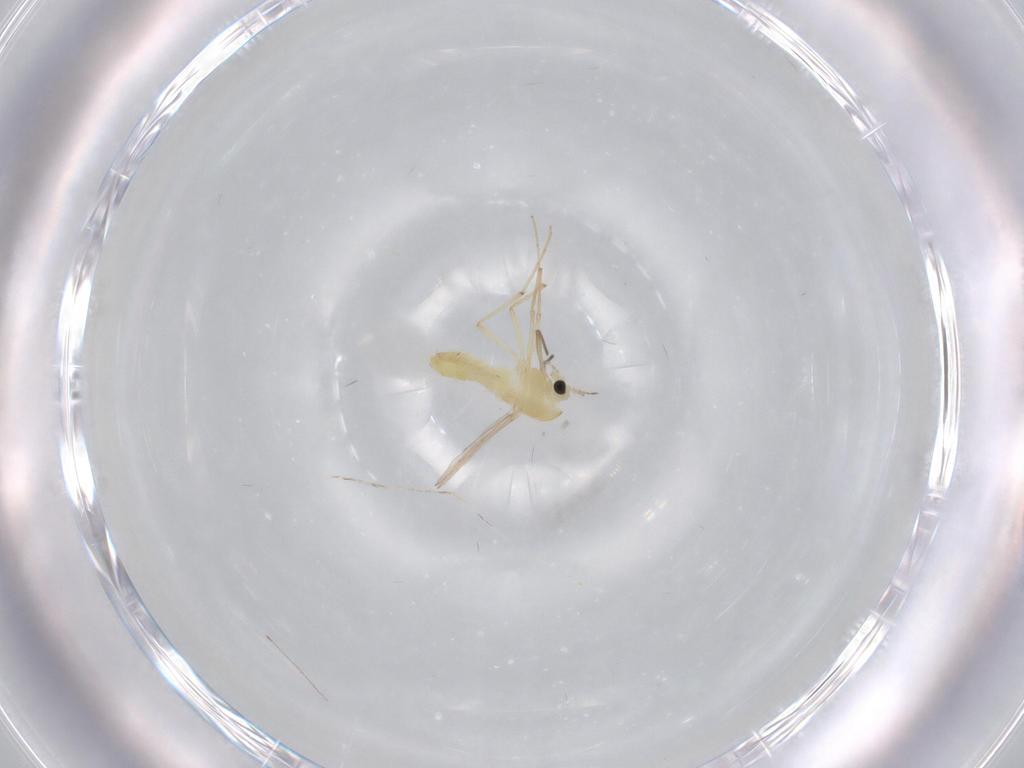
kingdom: Animalia
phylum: Arthropoda
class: Insecta
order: Diptera
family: Chironomidae
